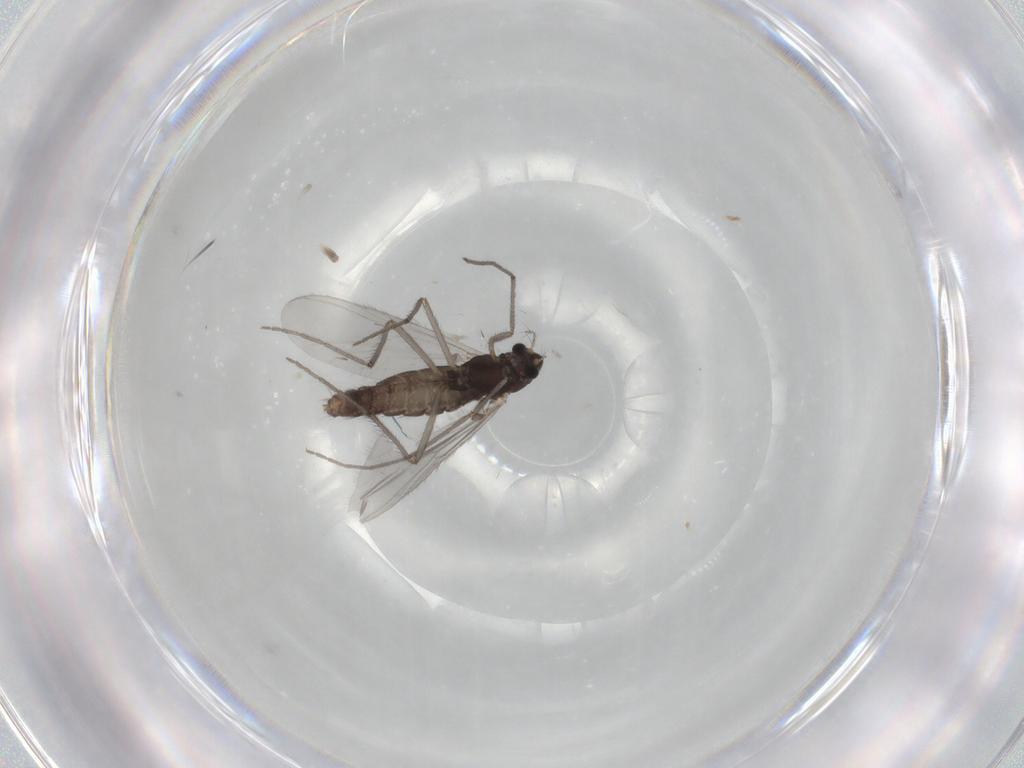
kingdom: Animalia
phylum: Arthropoda
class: Insecta
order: Diptera
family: Chironomidae
